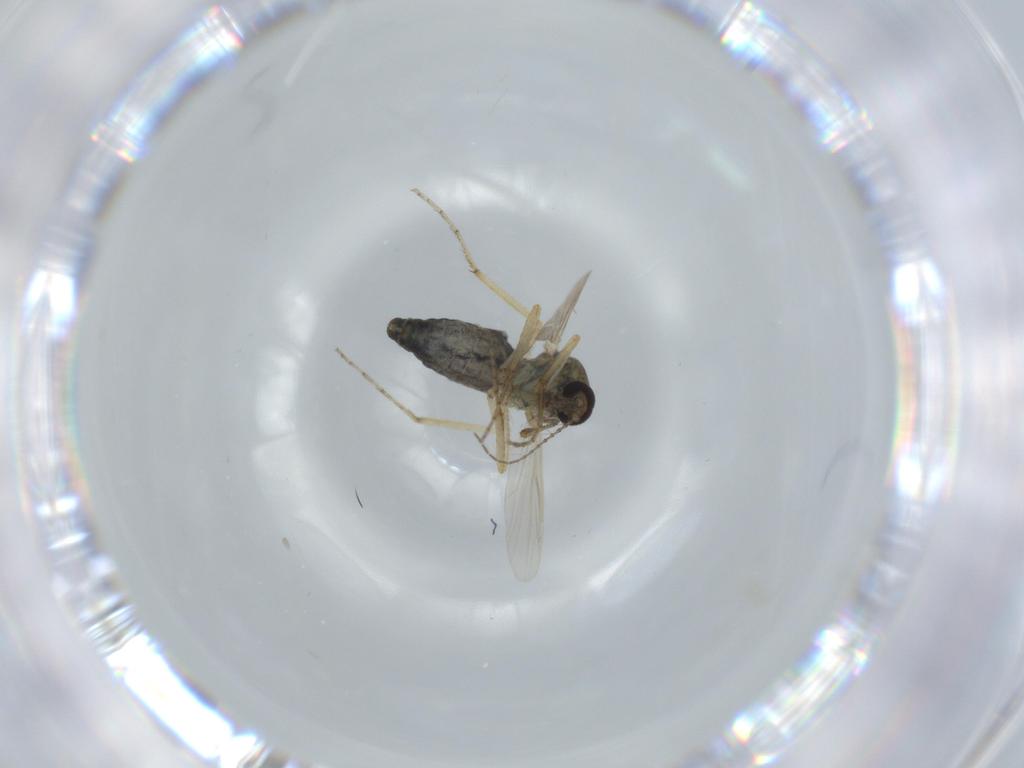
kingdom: Animalia
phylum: Arthropoda
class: Insecta
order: Diptera
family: Ceratopogonidae
